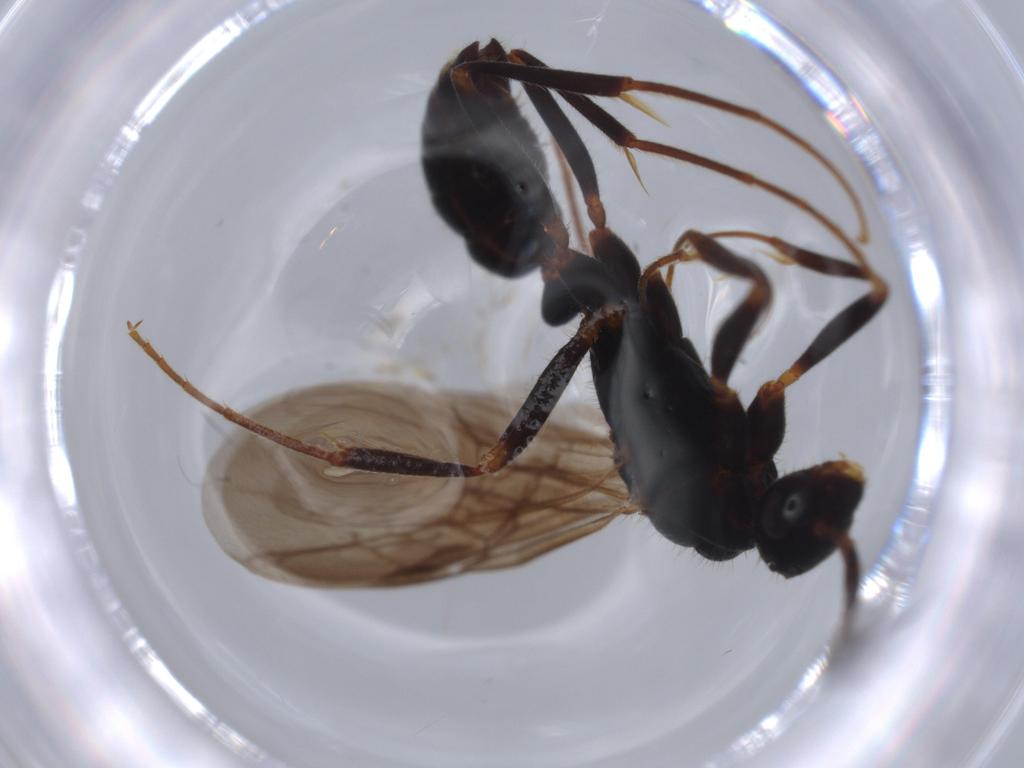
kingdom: Animalia
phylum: Arthropoda
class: Insecta
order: Hymenoptera
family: Formicidae
